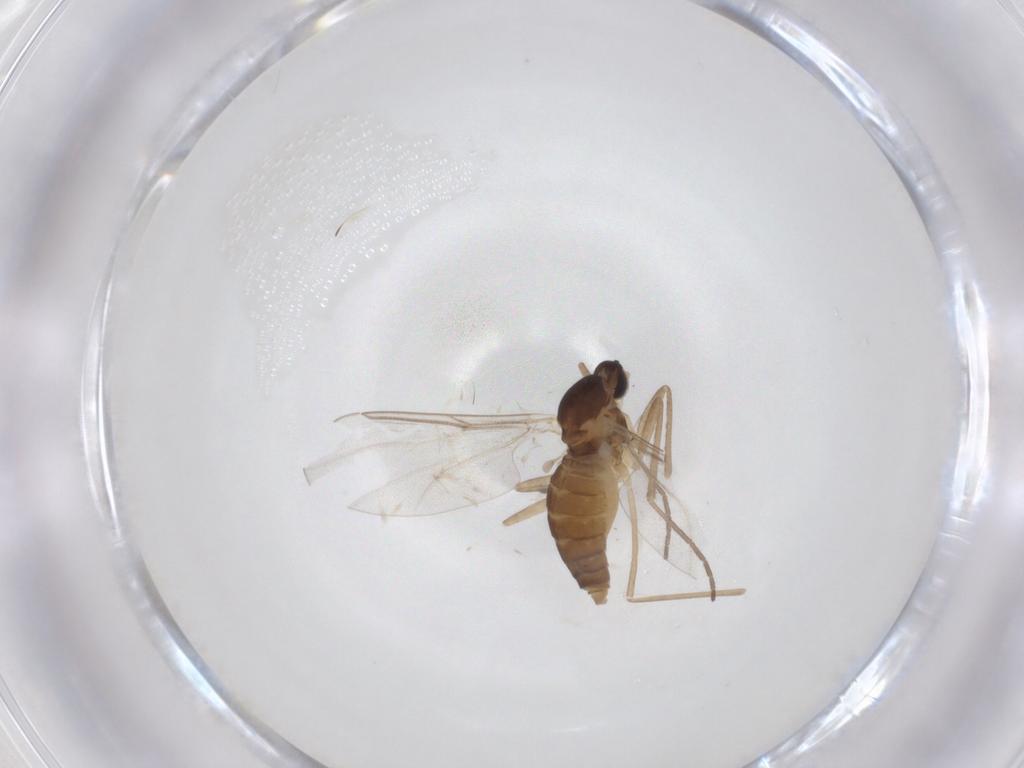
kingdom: Animalia
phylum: Arthropoda
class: Insecta
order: Diptera
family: Cecidomyiidae
